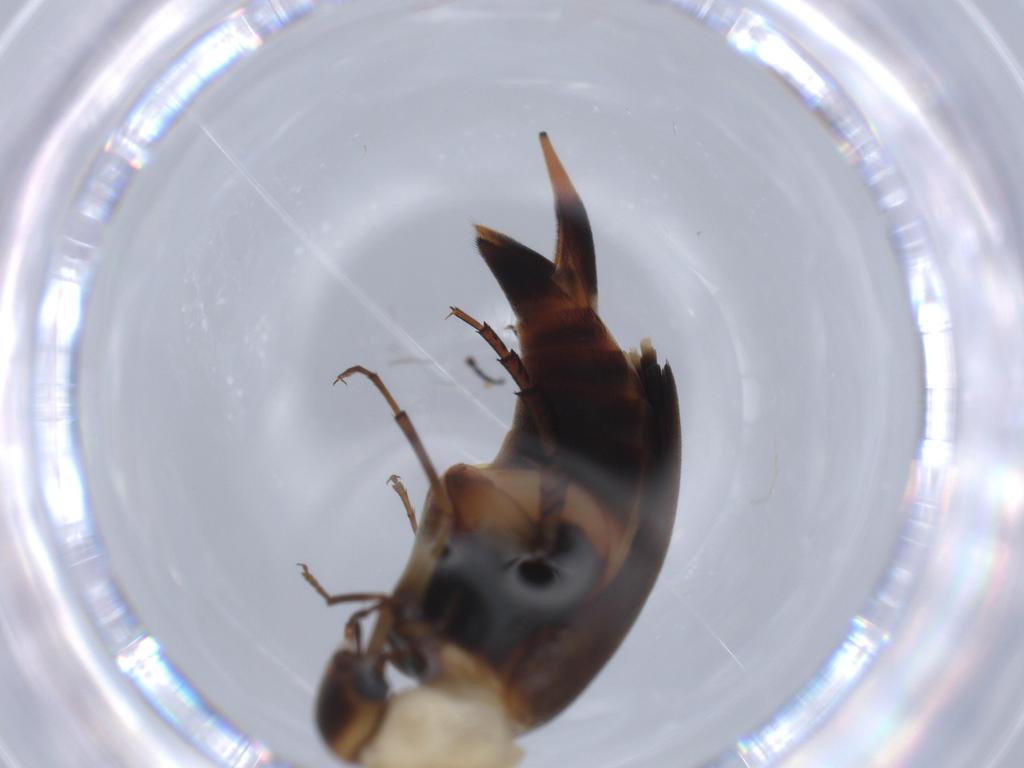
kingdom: Animalia
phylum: Arthropoda
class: Insecta
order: Coleoptera
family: Mordellidae
